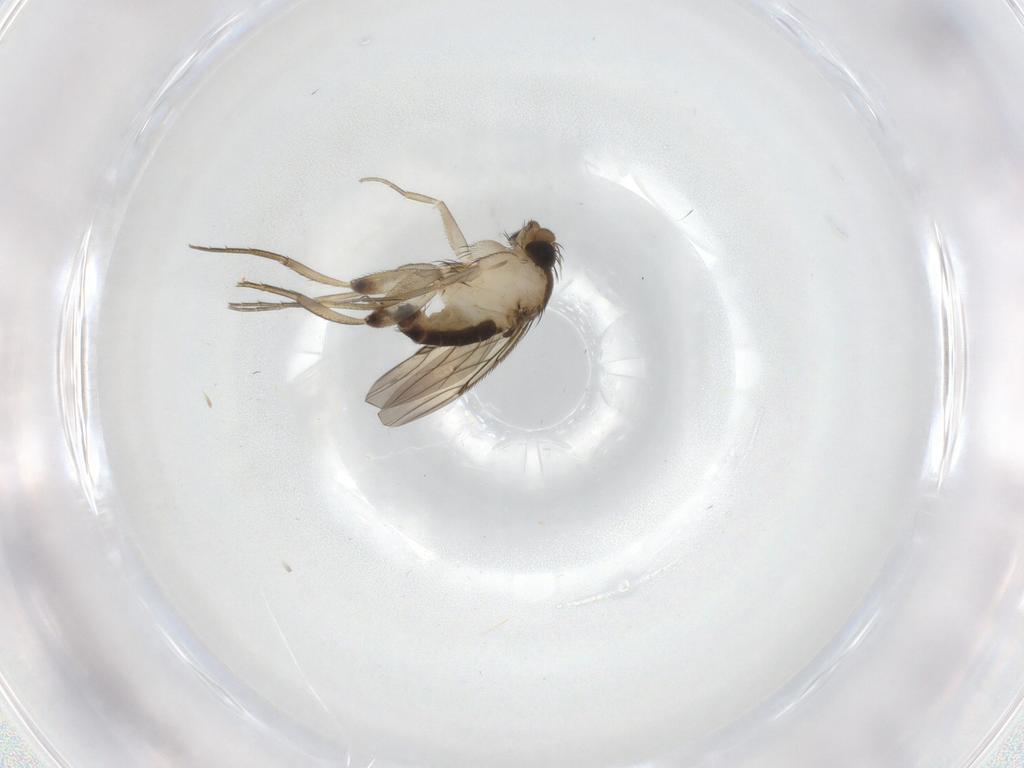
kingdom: Animalia
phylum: Arthropoda
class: Insecta
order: Diptera
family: Phoridae
